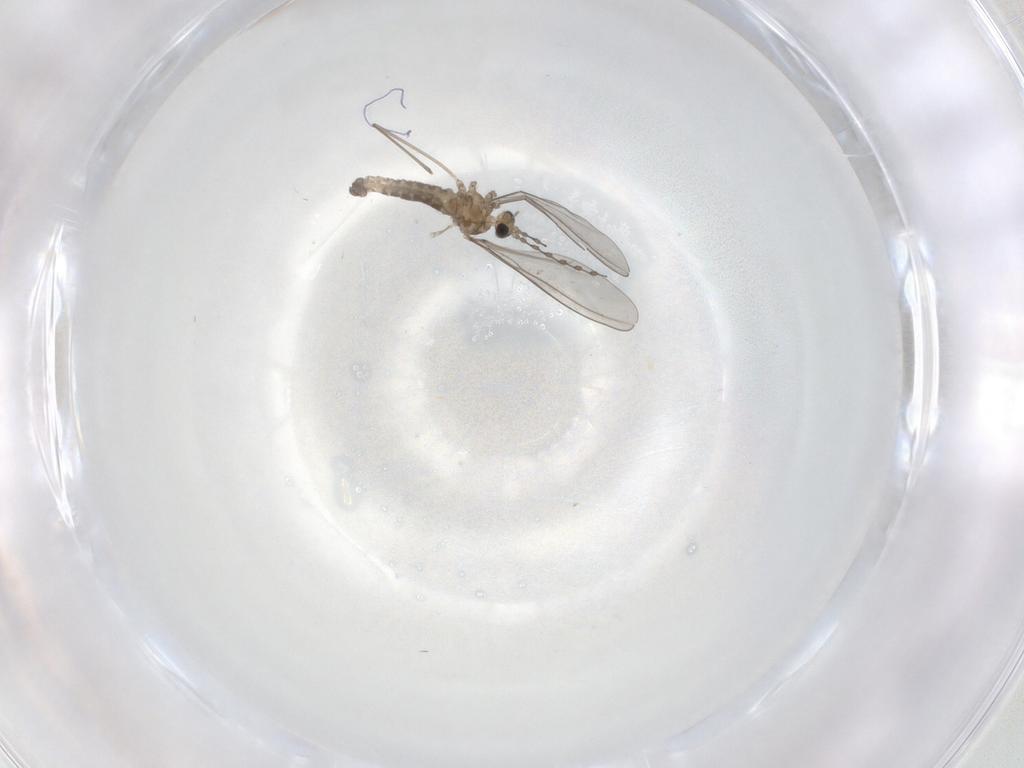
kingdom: Animalia
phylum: Arthropoda
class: Insecta
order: Diptera
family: Cecidomyiidae
